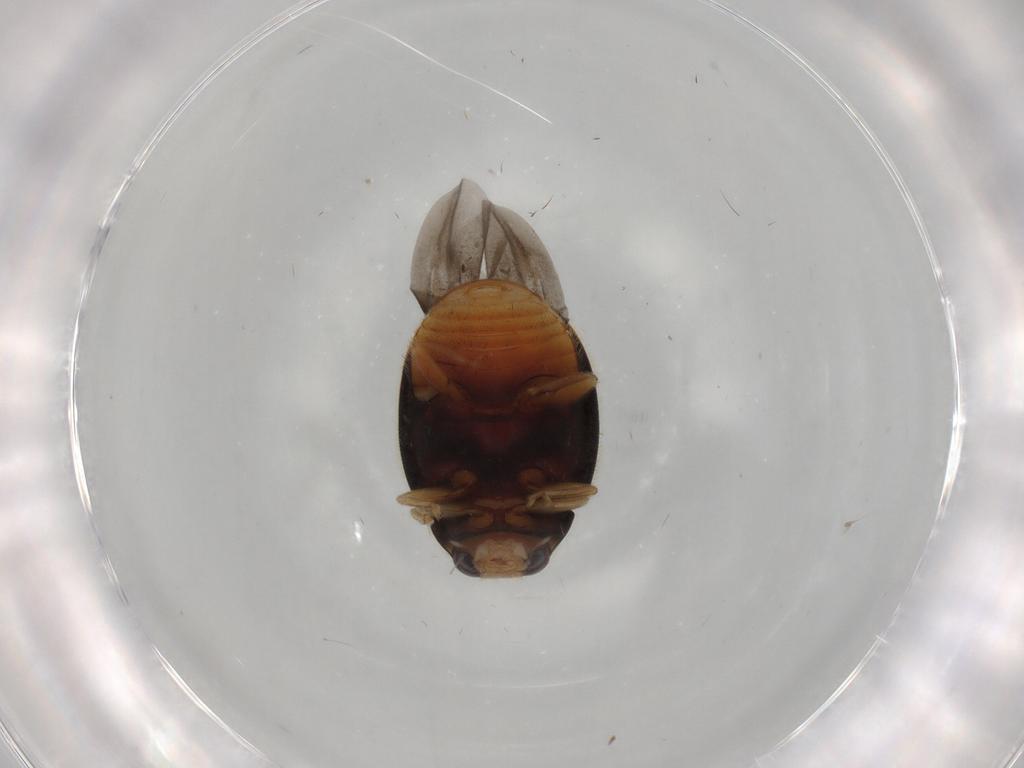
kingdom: Animalia
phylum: Arthropoda
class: Insecta
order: Coleoptera
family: Coccinellidae
